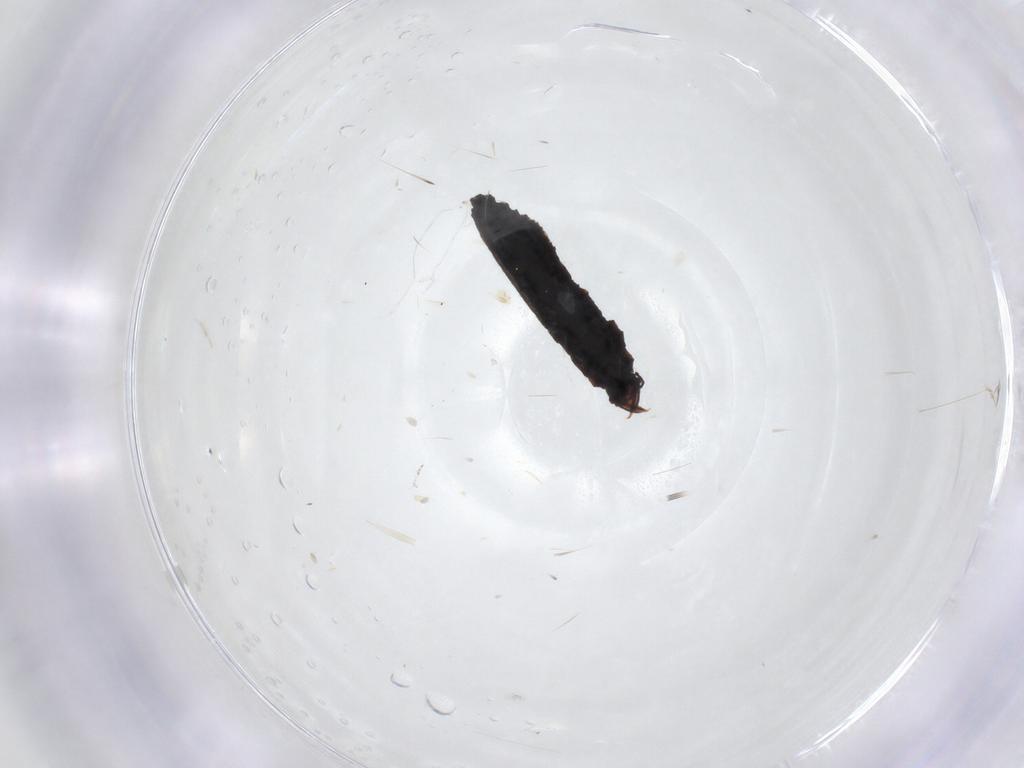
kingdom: Animalia
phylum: Arthropoda
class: Insecta
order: Neuroptera
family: Hemerobiidae
